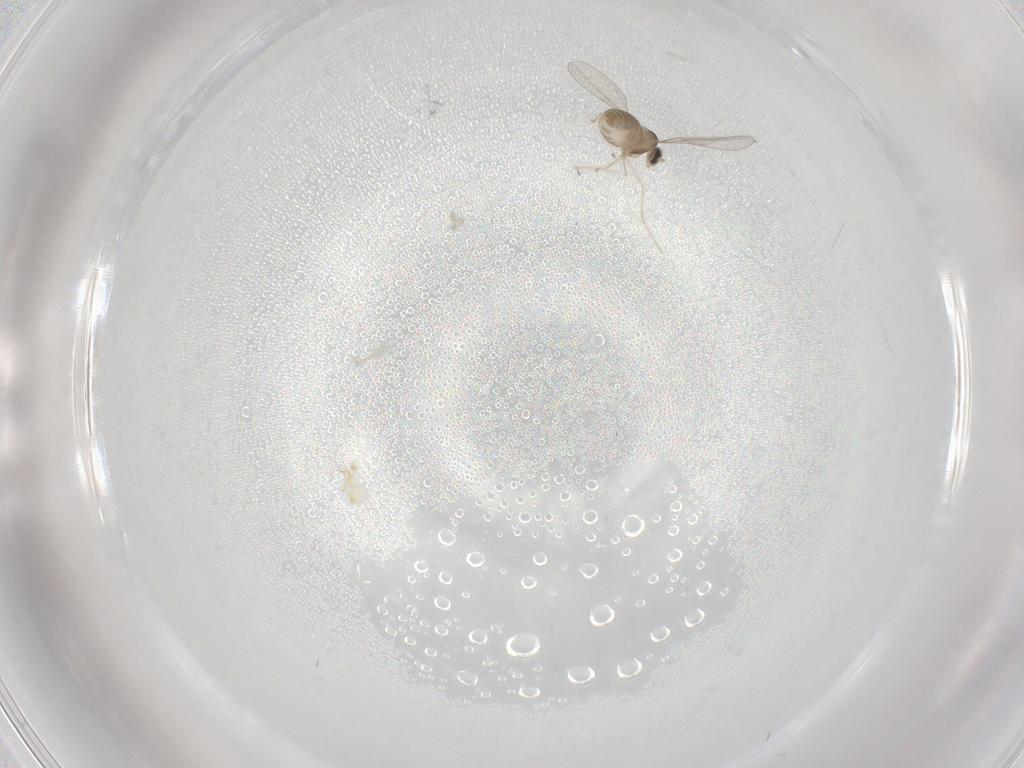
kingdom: Animalia
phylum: Arthropoda
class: Insecta
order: Diptera
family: Cecidomyiidae
